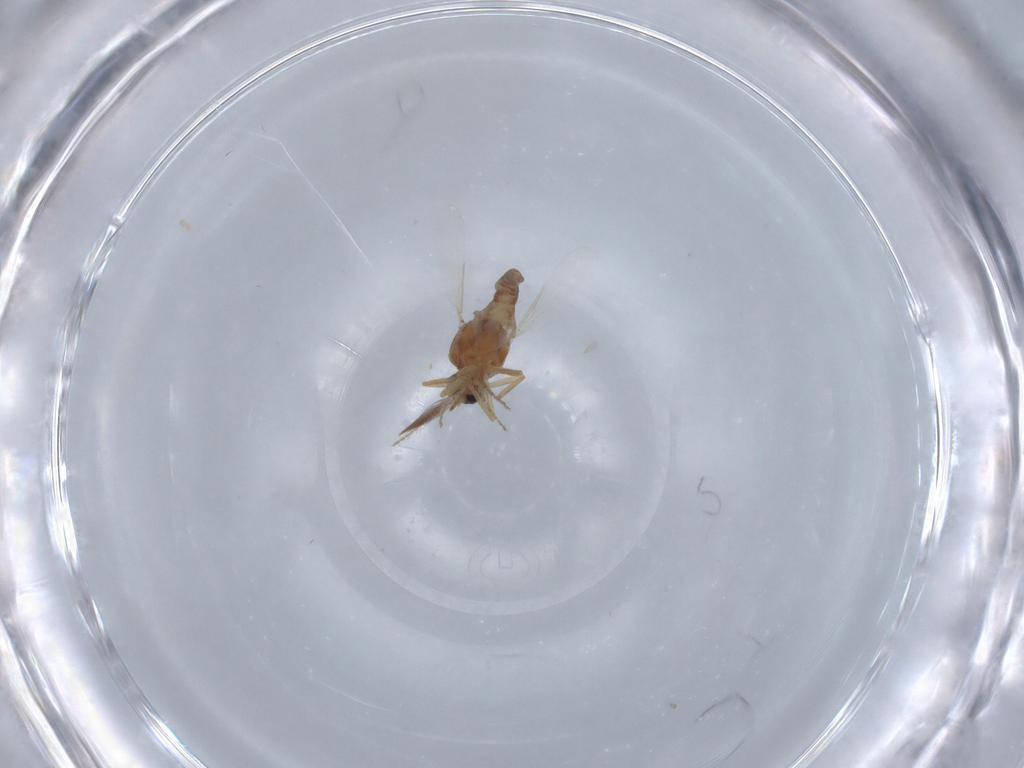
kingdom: Animalia
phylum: Arthropoda
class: Insecta
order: Diptera
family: Ceratopogonidae
